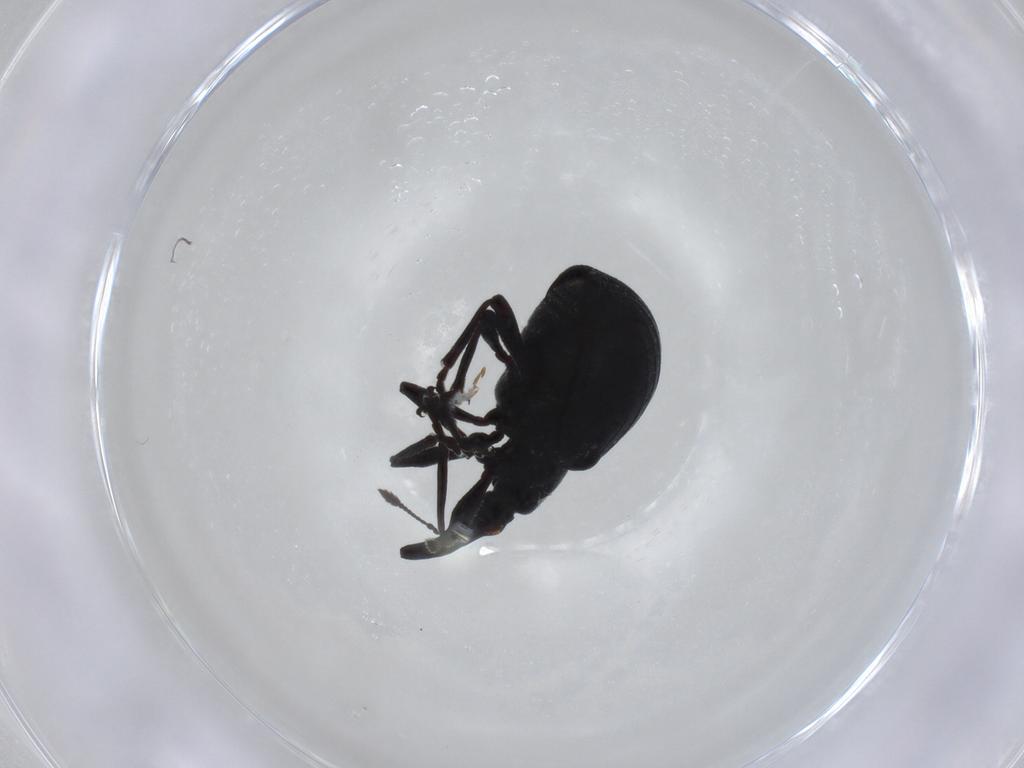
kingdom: Animalia
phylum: Arthropoda
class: Insecta
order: Coleoptera
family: Brentidae
